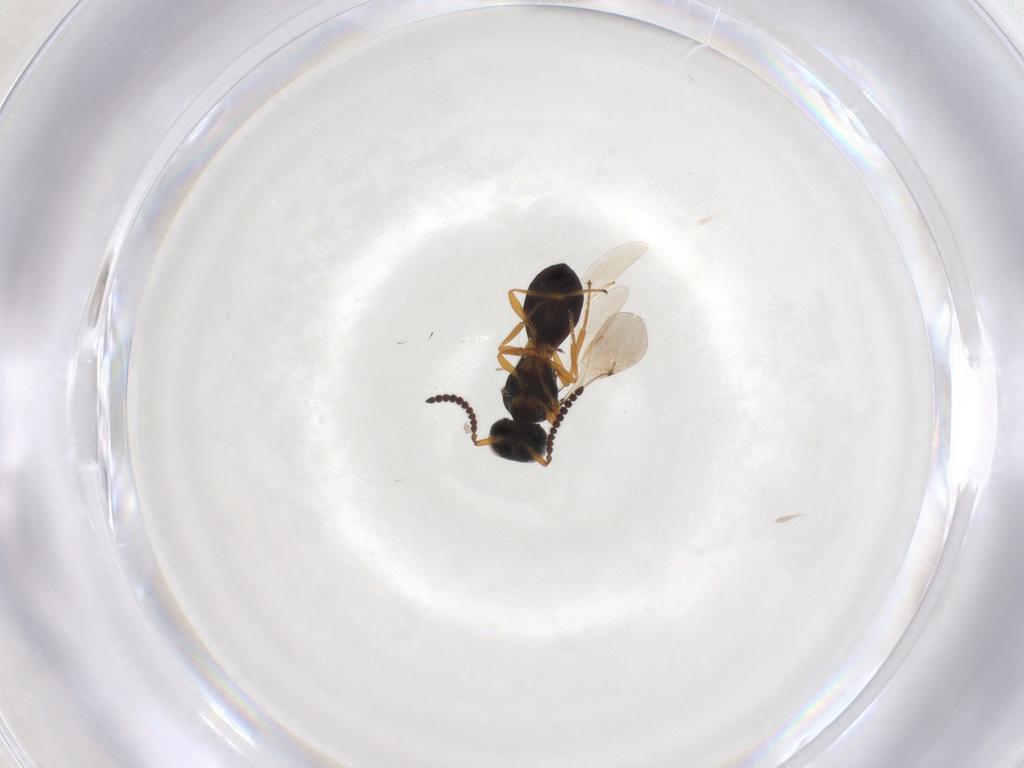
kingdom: Animalia
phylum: Arthropoda
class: Insecta
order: Hymenoptera
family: Scelionidae
